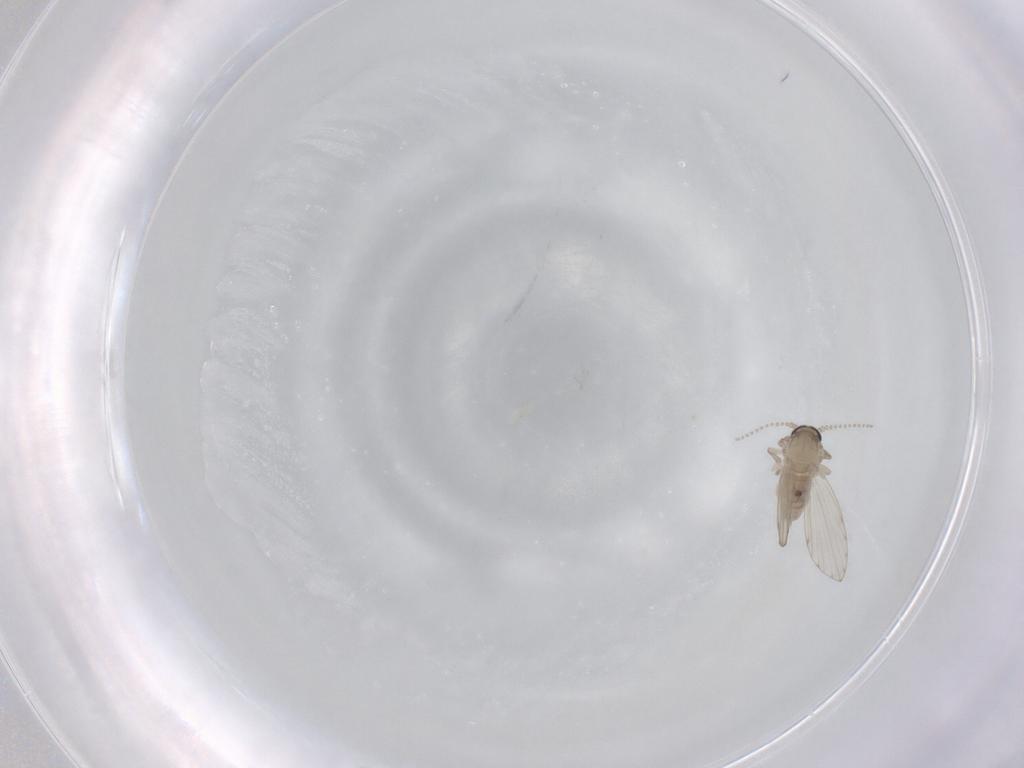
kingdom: Animalia
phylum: Arthropoda
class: Insecta
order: Diptera
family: Psychodidae
